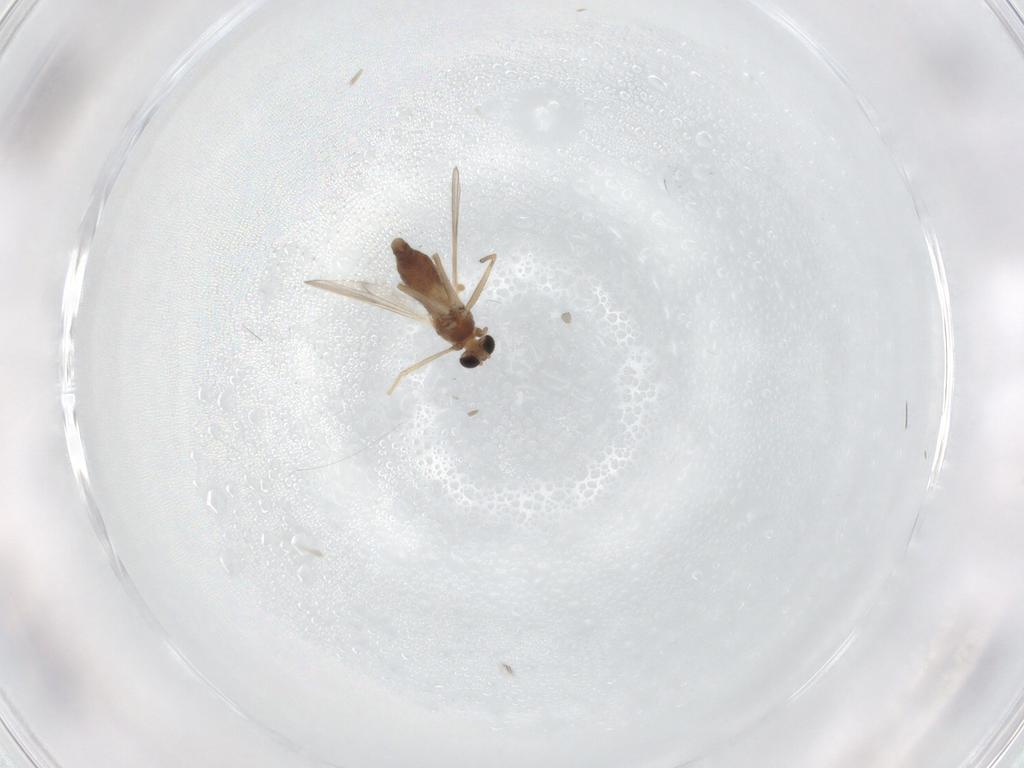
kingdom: Animalia
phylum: Arthropoda
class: Insecta
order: Diptera
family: Chironomidae
